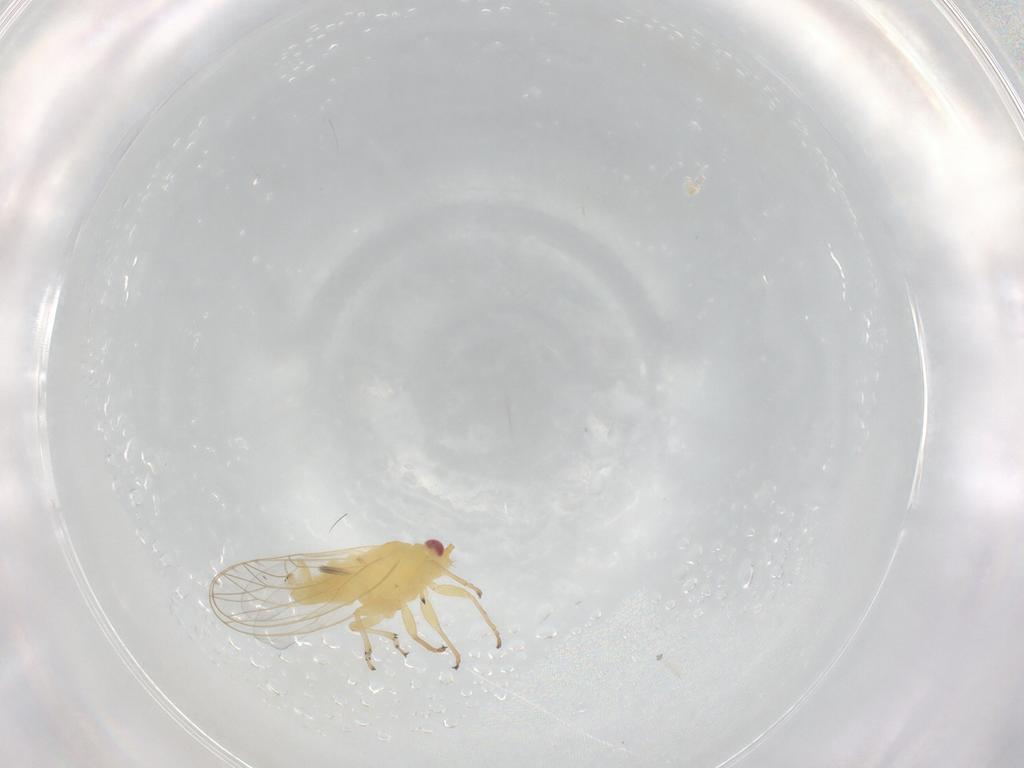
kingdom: Animalia
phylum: Arthropoda
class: Insecta
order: Hemiptera
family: Psyllidae
